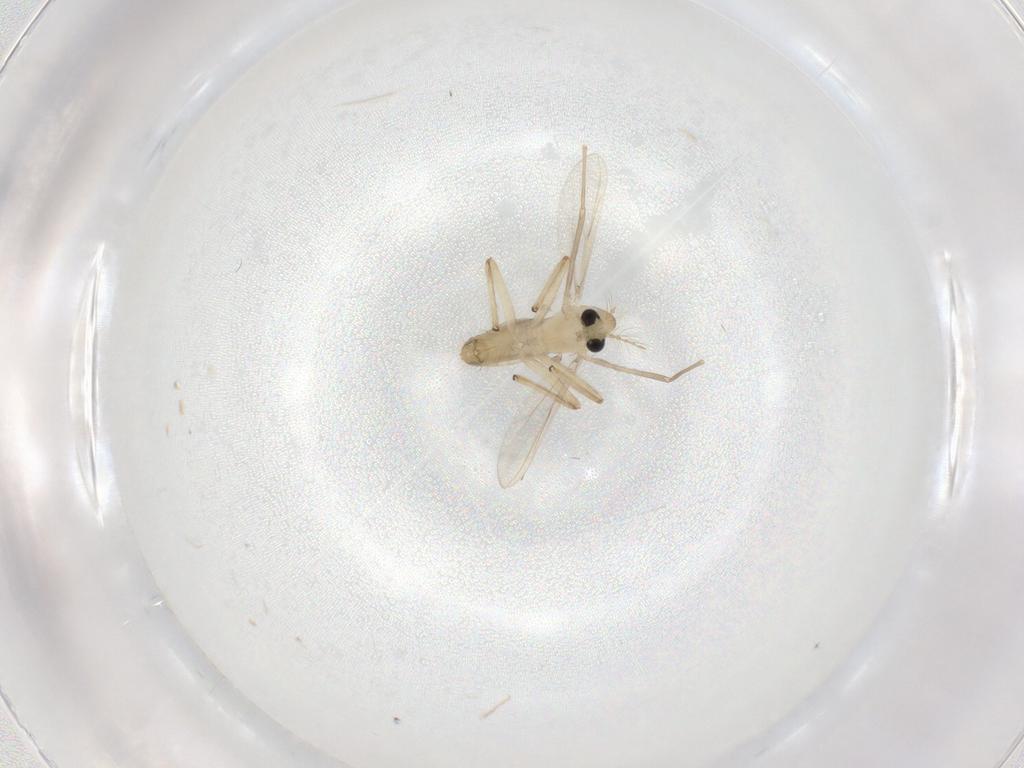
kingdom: Animalia
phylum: Arthropoda
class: Insecta
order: Diptera
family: Chironomidae
